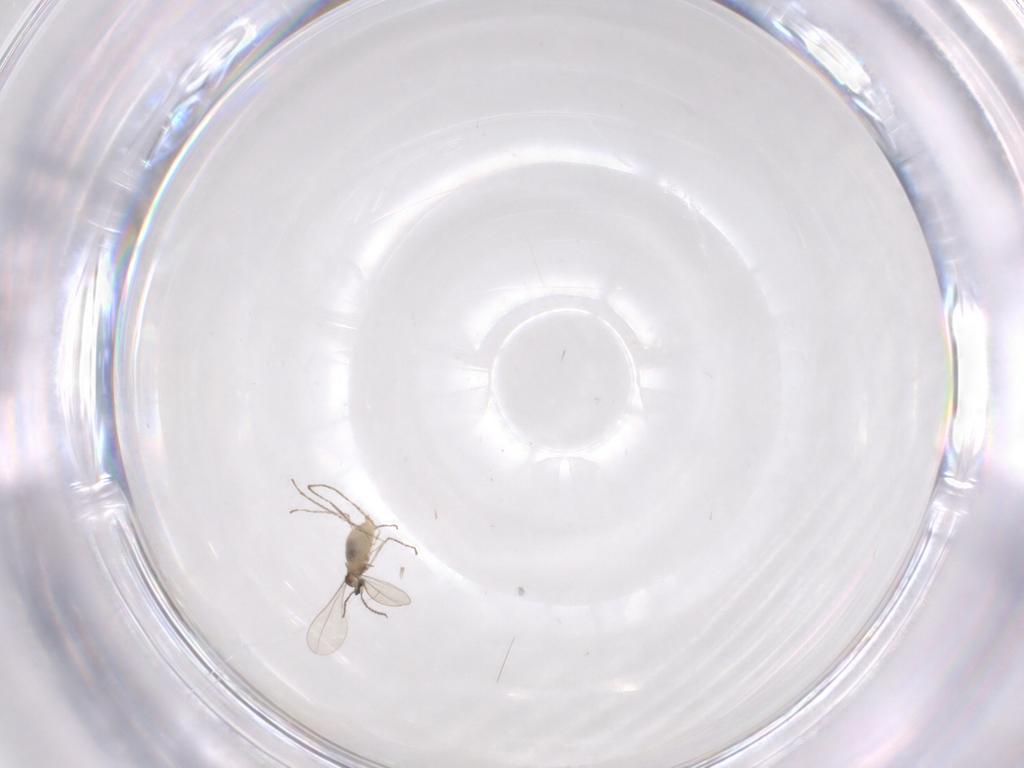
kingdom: Animalia
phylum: Arthropoda
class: Insecta
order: Diptera
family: Cecidomyiidae
